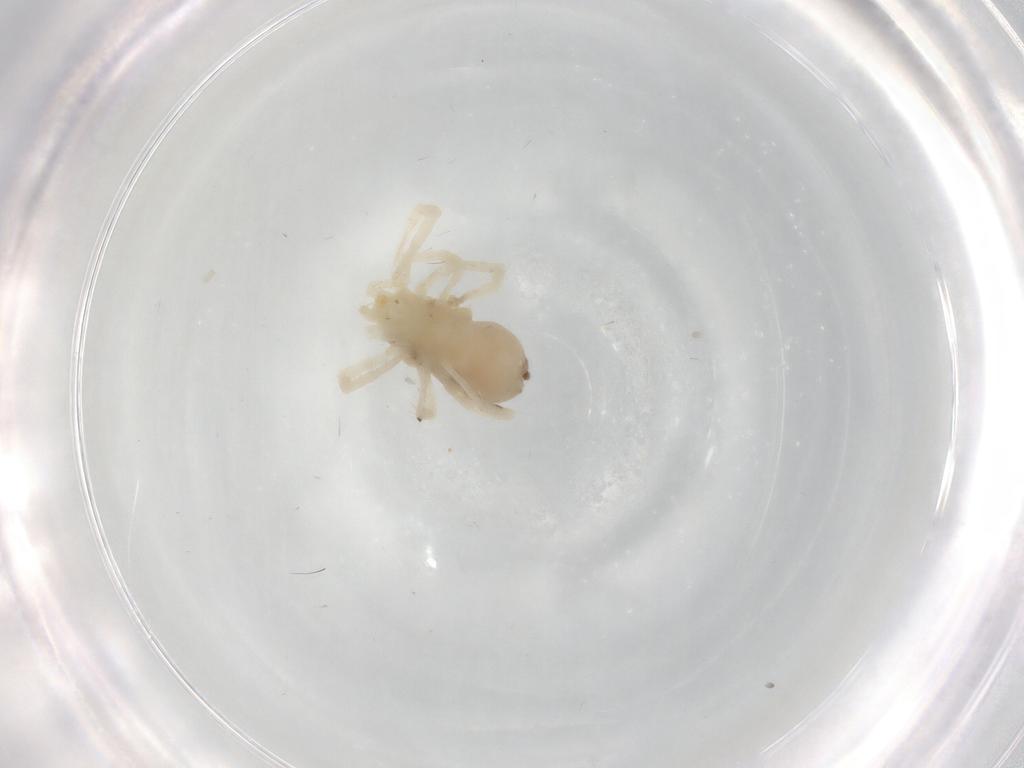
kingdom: Animalia
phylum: Arthropoda
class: Arachnida
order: Sarcoptiformes
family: Ceratozetidae
